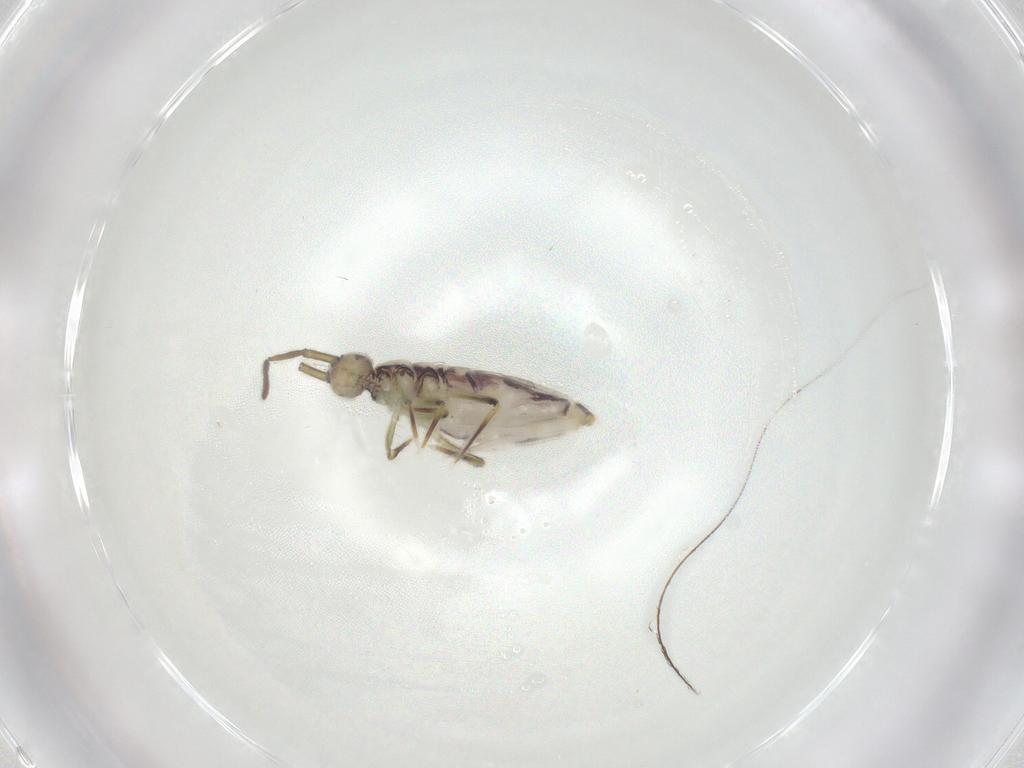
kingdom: Animalia
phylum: Arthropoda
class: Collembola
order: Entomobryomorpha
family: Entomobryidae
